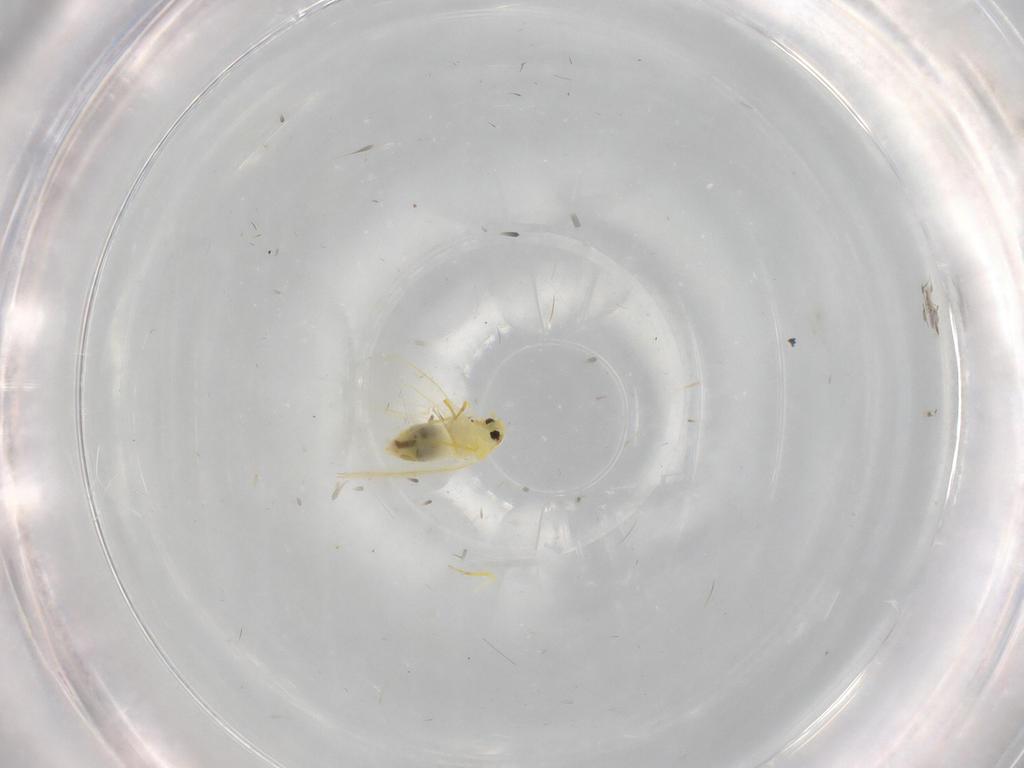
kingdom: Animalia
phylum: Arthropoda
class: Insecta
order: Hemiptera
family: Aleyrodidae
